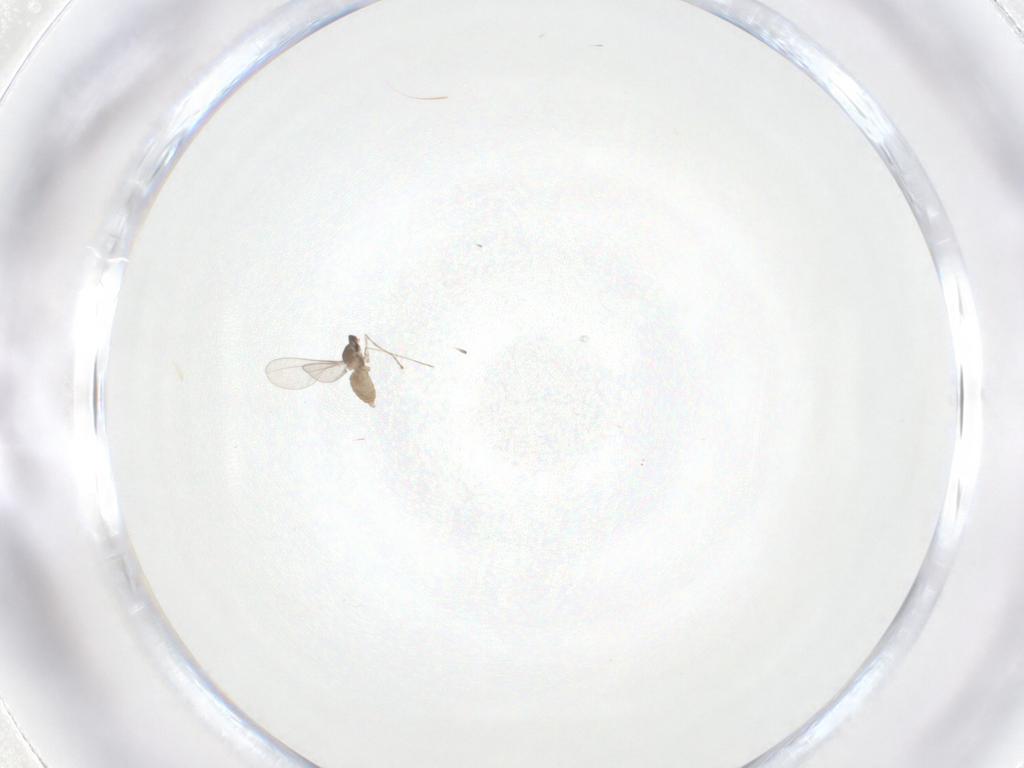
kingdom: Animalia
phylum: Arthropoda
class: Insecta
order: Diptera
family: Cecidomyiidae
